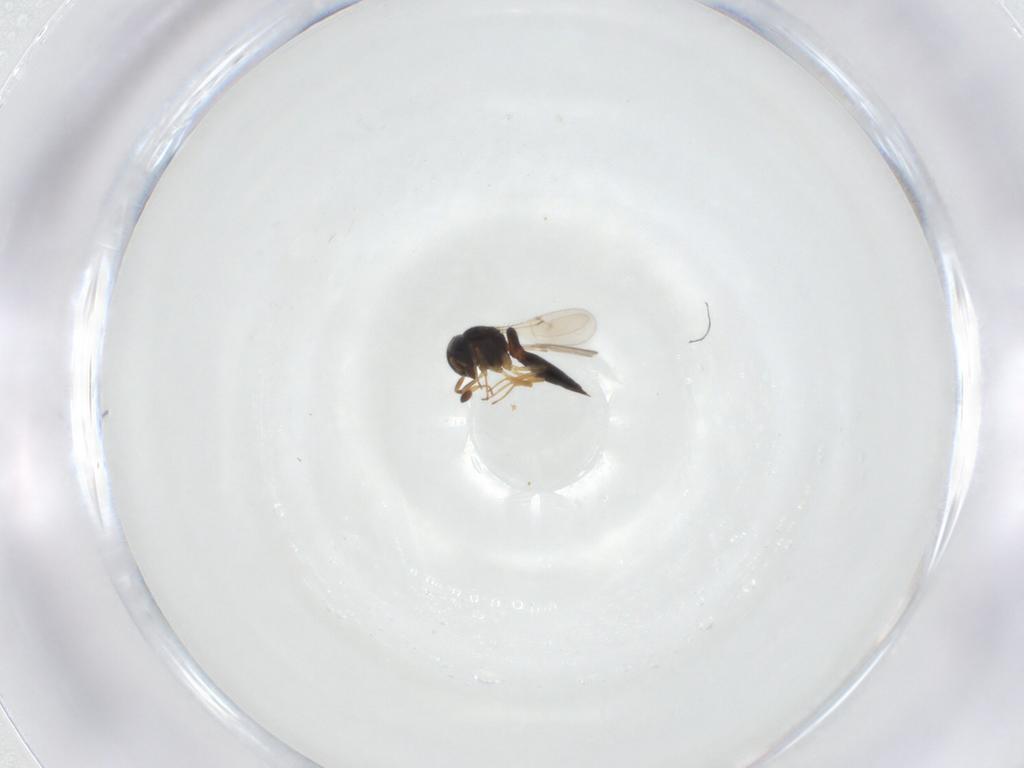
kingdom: Animalia
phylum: Arthropoda
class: Insecta
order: Hymenoptera
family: Scelionidae
